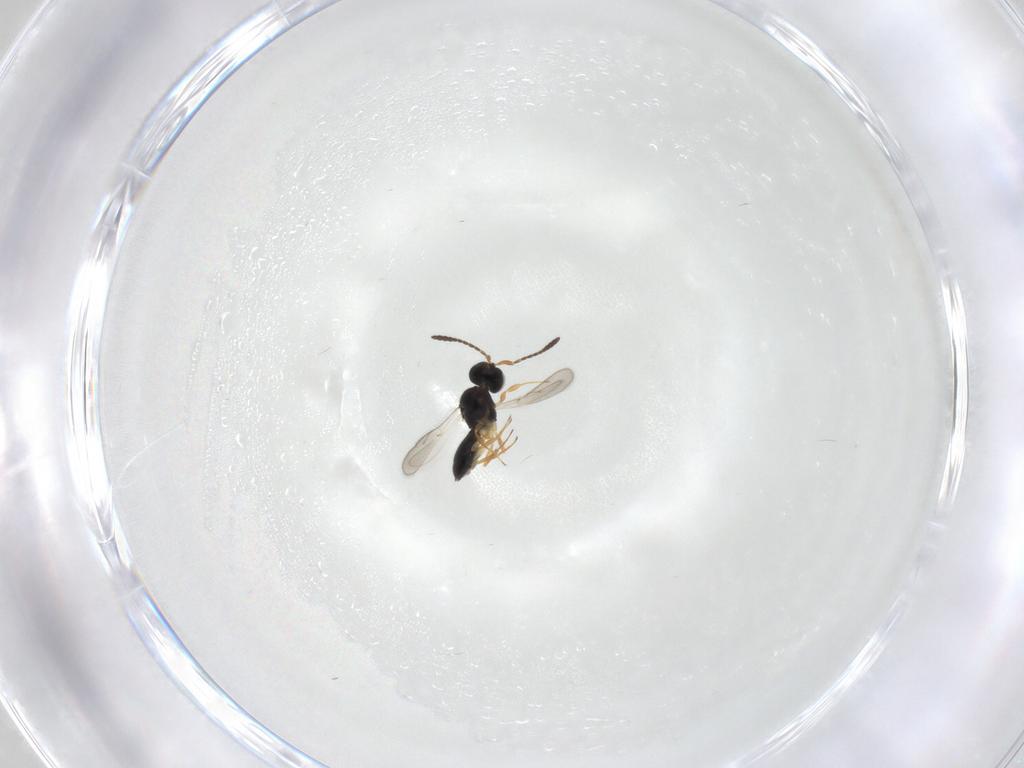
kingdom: Animalia
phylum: Arthropoda
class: Insecta
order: Hymenoptera
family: Scelionidae
